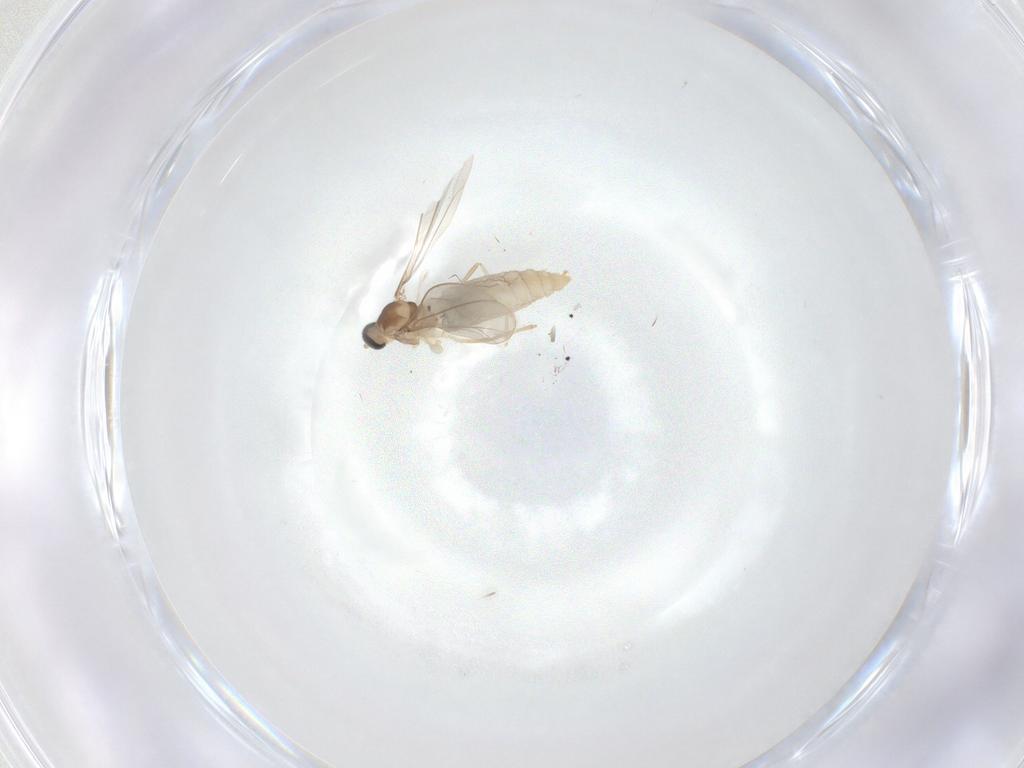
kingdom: Animalia
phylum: Arthropoda
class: Insecta
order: Diptera
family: Cecidomyiidae
